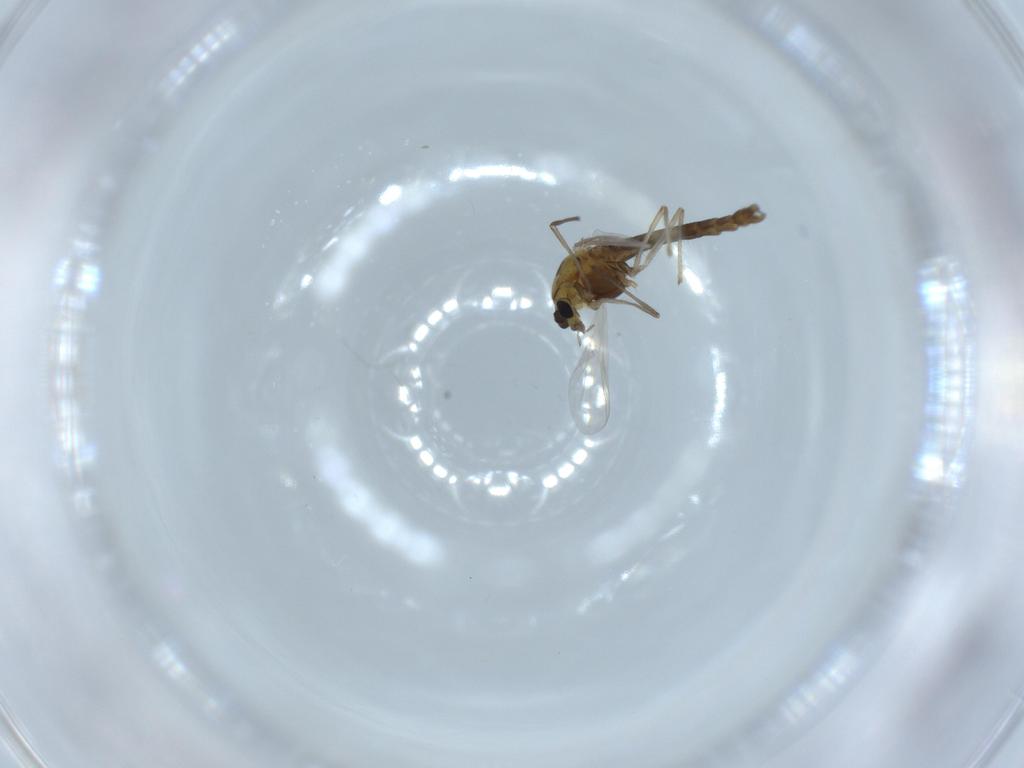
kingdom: Animalia
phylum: Arthropoda
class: Insecta
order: Diptera
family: Chironomidae
